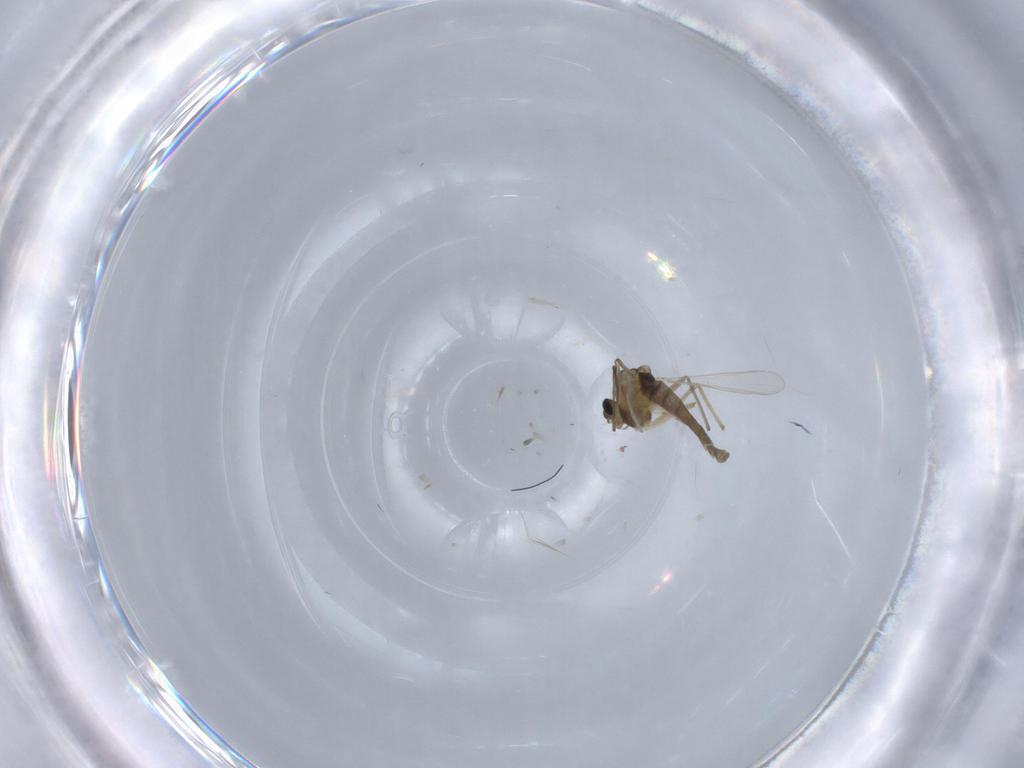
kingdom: Animalia
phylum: Arthropoda
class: Insecta
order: Diptera
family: Chironomidae
